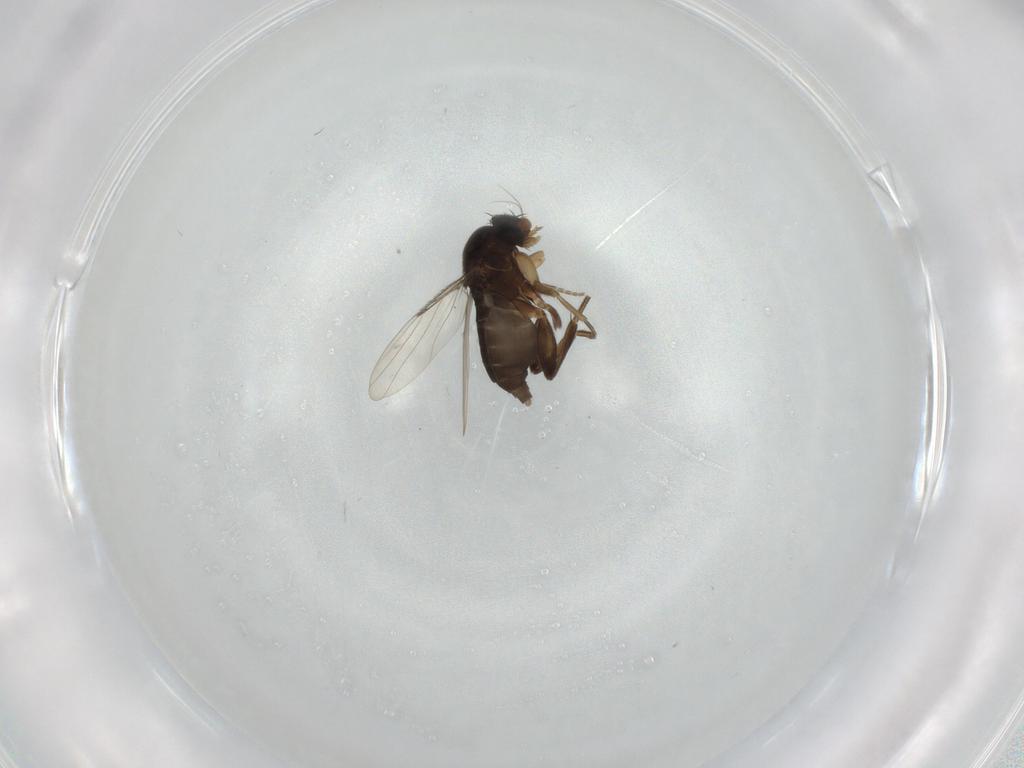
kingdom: Animalia
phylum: Arthropoda
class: Insecta
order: Diptera
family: Phoridae
